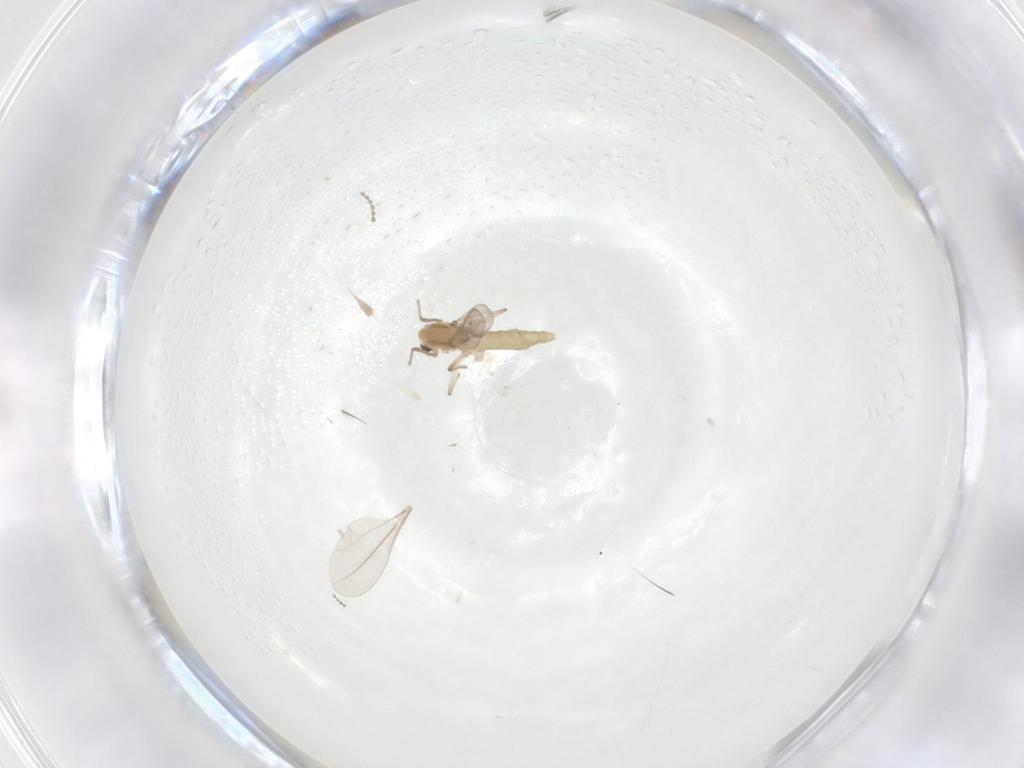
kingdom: Animalia
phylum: Arthropoda
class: Insecta
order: Diptera
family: Chironomidae
